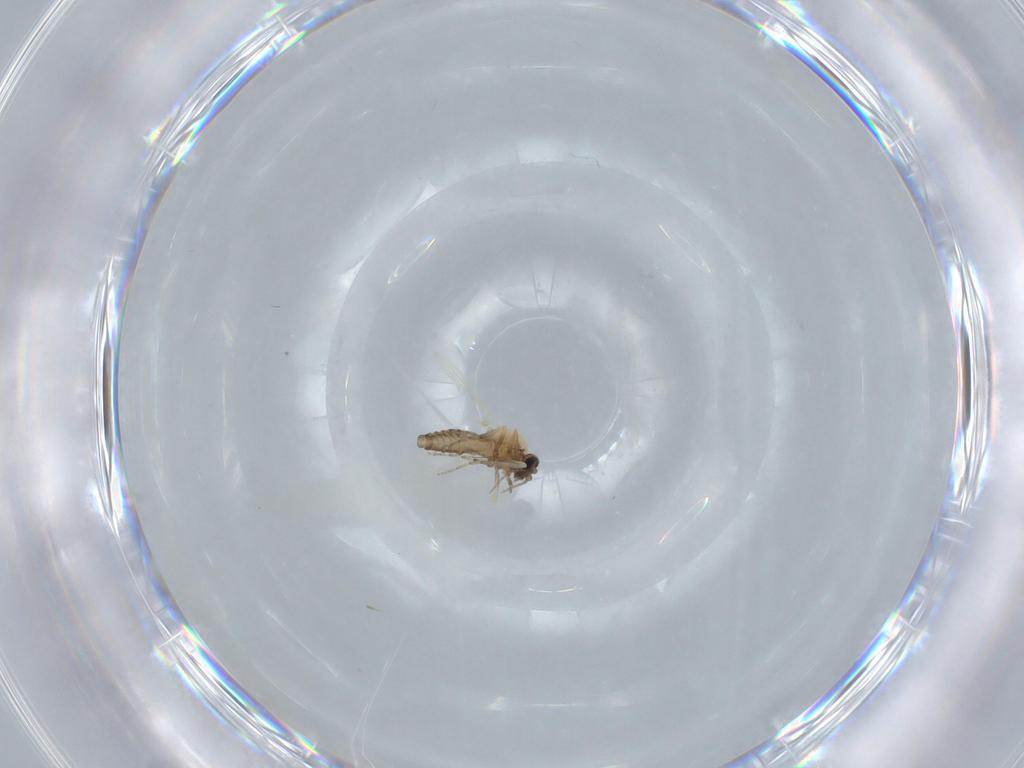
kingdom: Animalia
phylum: Arthropoda
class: Insecta
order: Diptera
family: Ceratopogonidae
